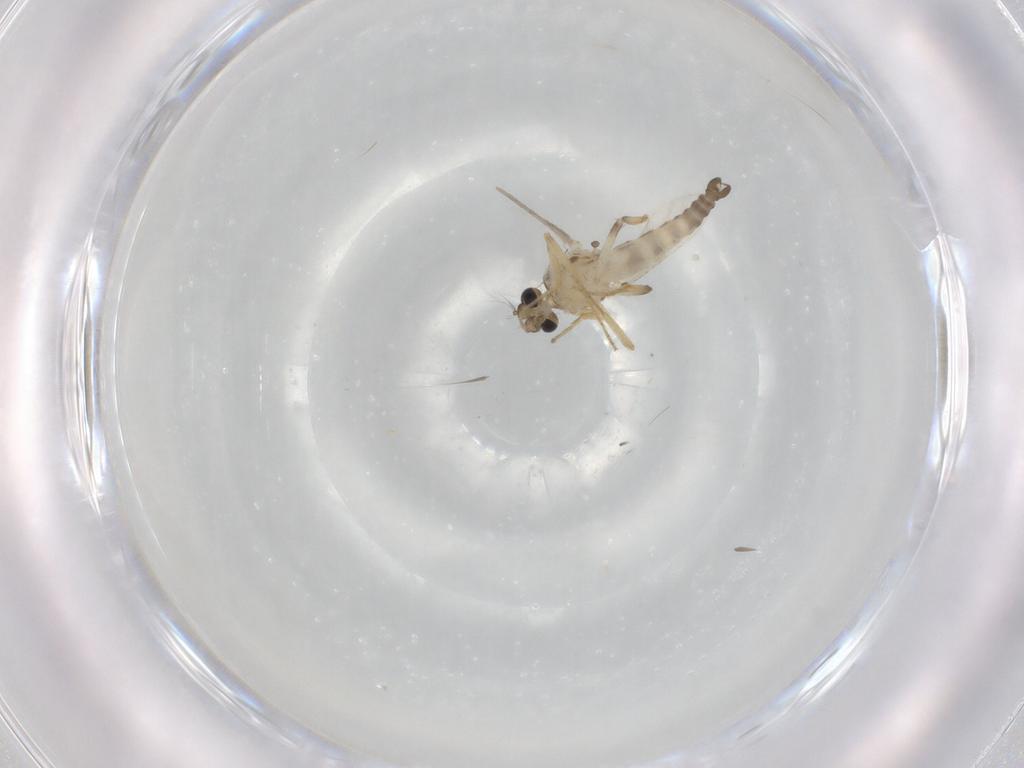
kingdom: Animalia
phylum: Arthropoda
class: Insecta
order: Diptera
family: Ceratopogonidae
